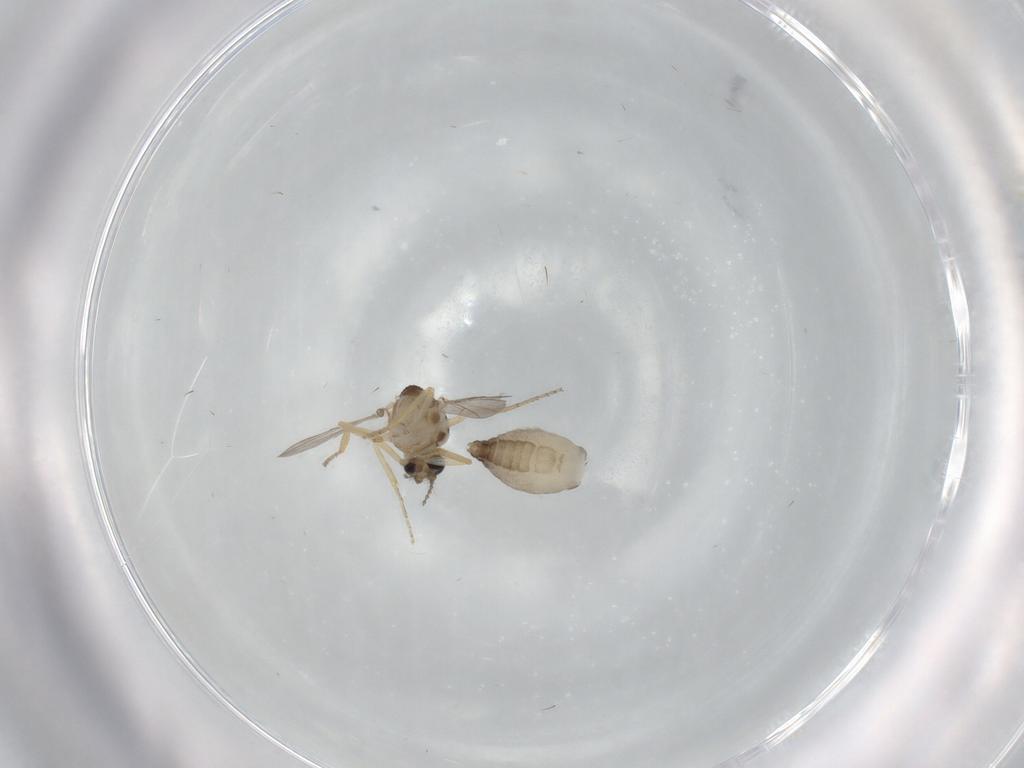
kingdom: Animalia
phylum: Arthropoda
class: Insecta
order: Diptera
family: Ceratopogonidae
